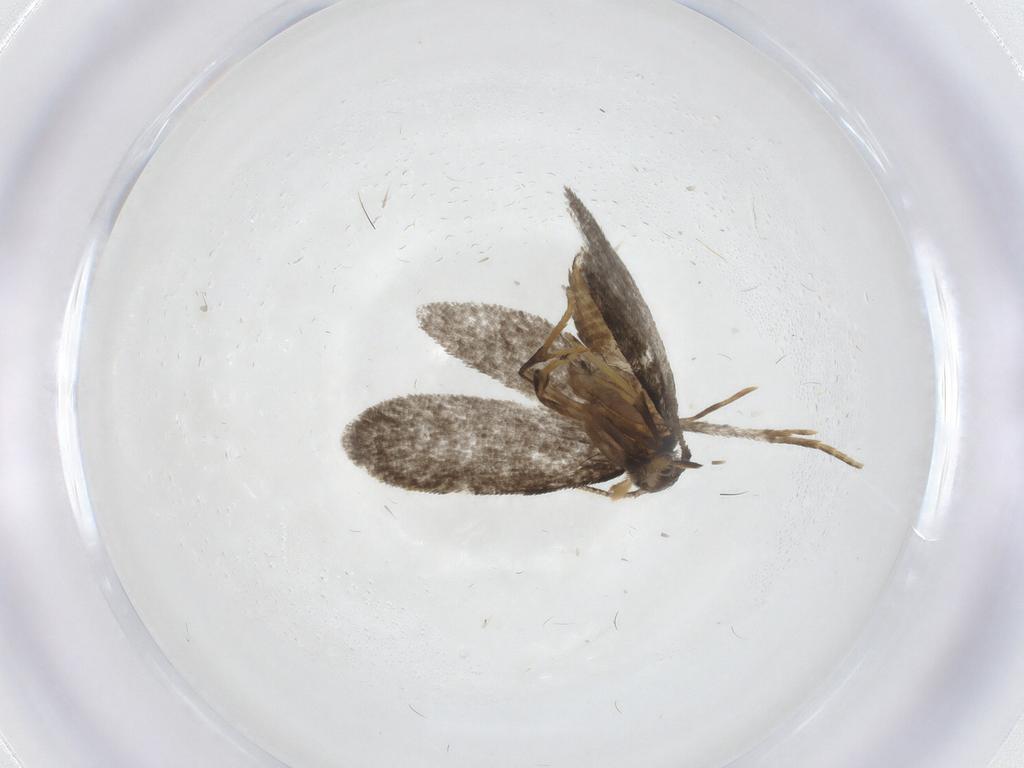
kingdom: Animalia
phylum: Arthropoda
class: Insecta
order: Lepidoptera
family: Psychidae
